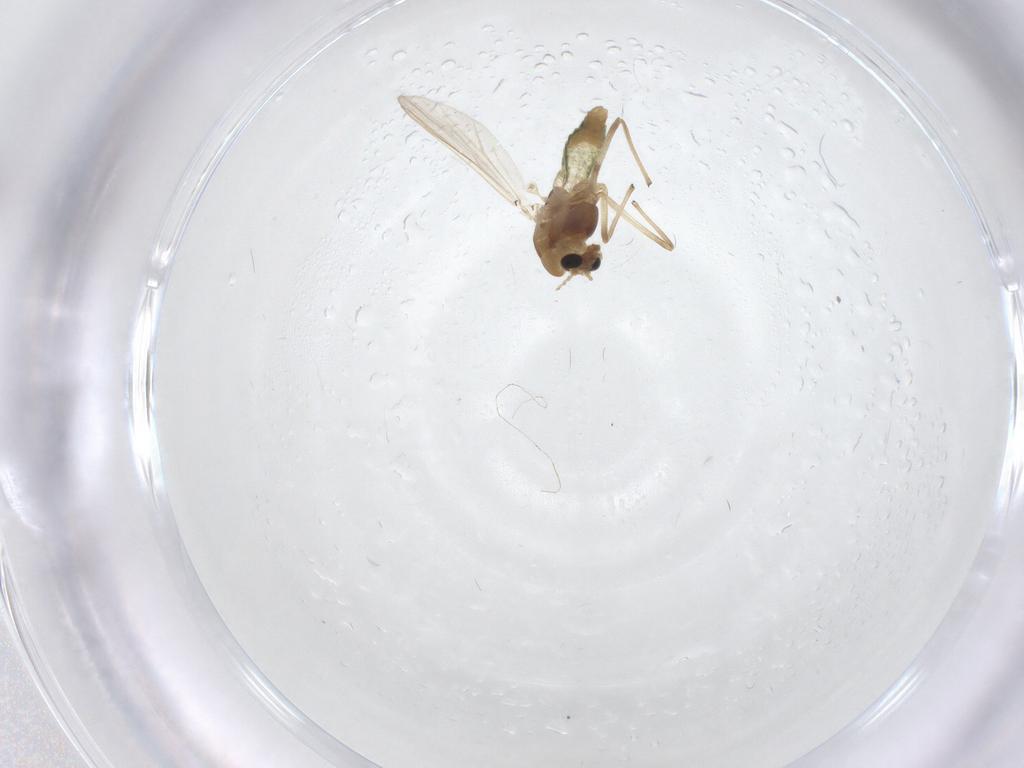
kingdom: Animalia
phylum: Arthropoda
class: Insecta
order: Diptera
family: Chironomidae
